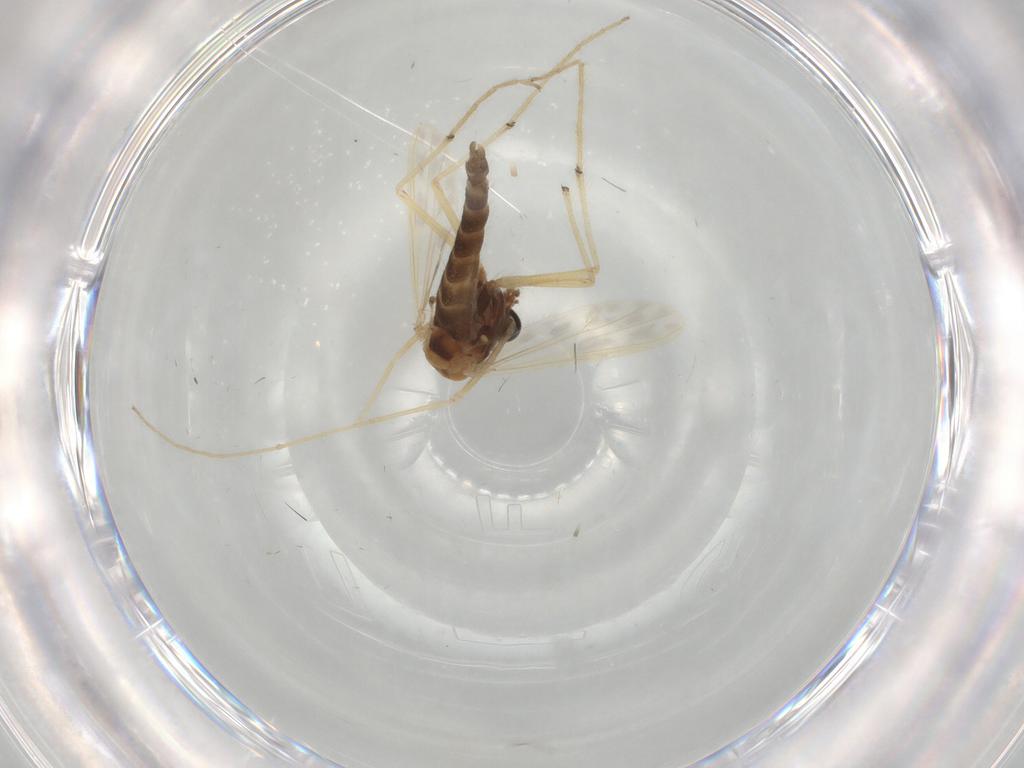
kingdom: Animalia
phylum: Arthropoda
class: Insecta
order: Diptera
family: Chironomidae
